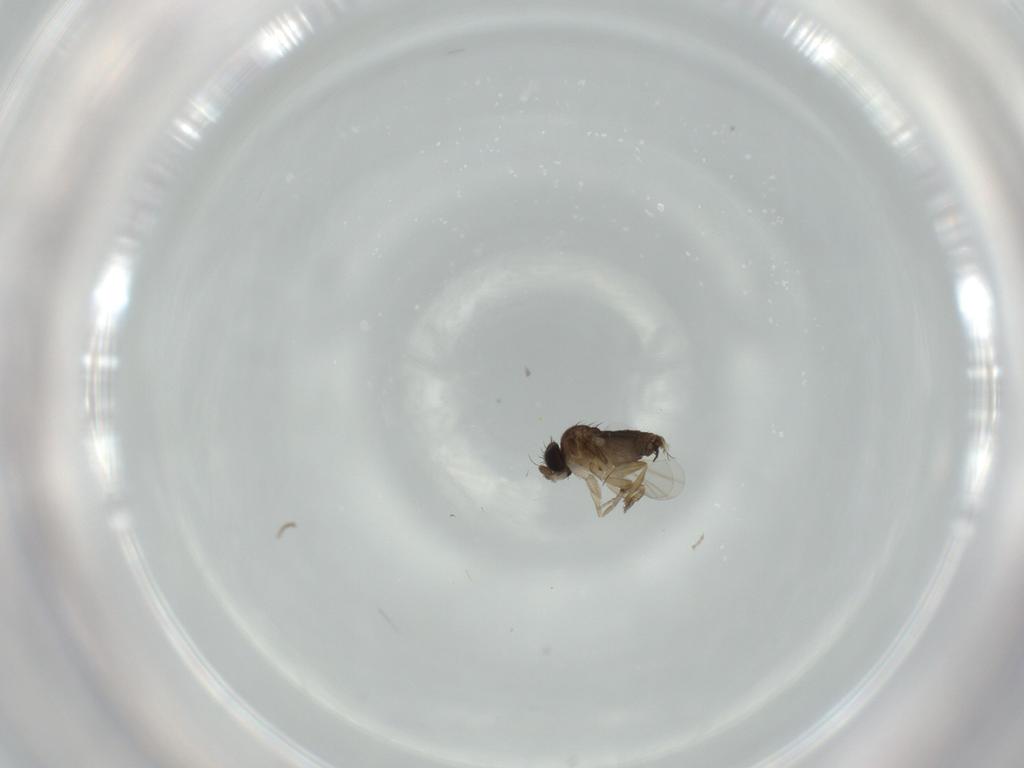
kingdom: Animalia
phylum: Arthropoda
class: Insecta
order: Diptera
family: Phoridae
